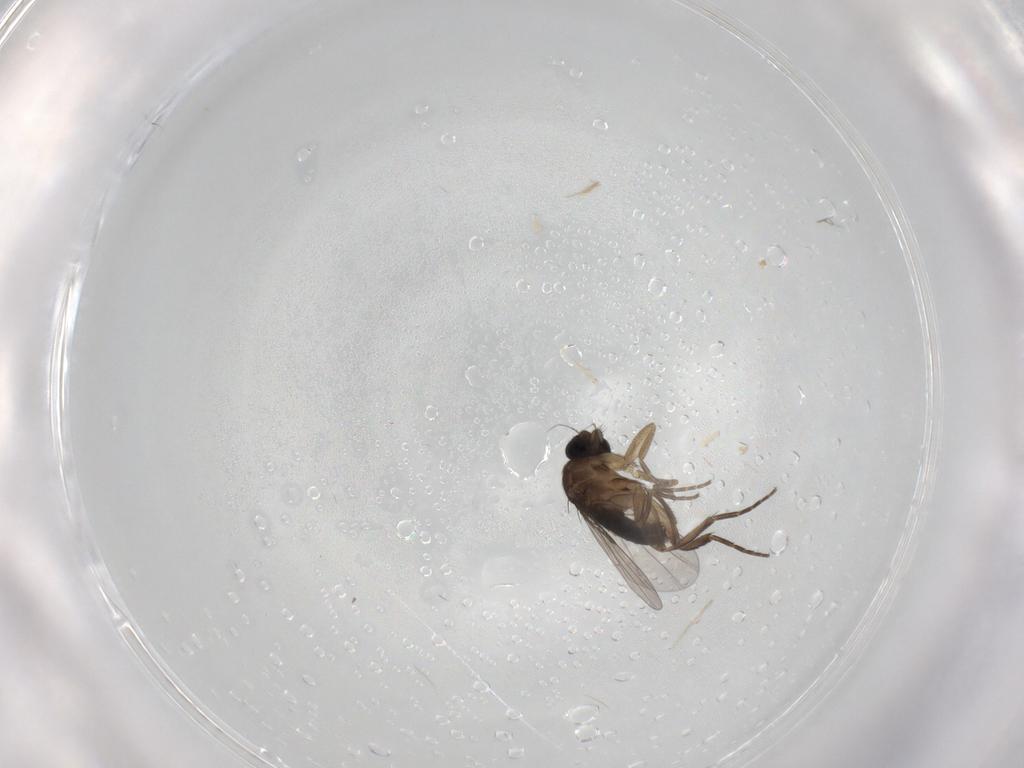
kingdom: Animalia
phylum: Arthropoda
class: Insecta
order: Diptera
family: Phoridae
